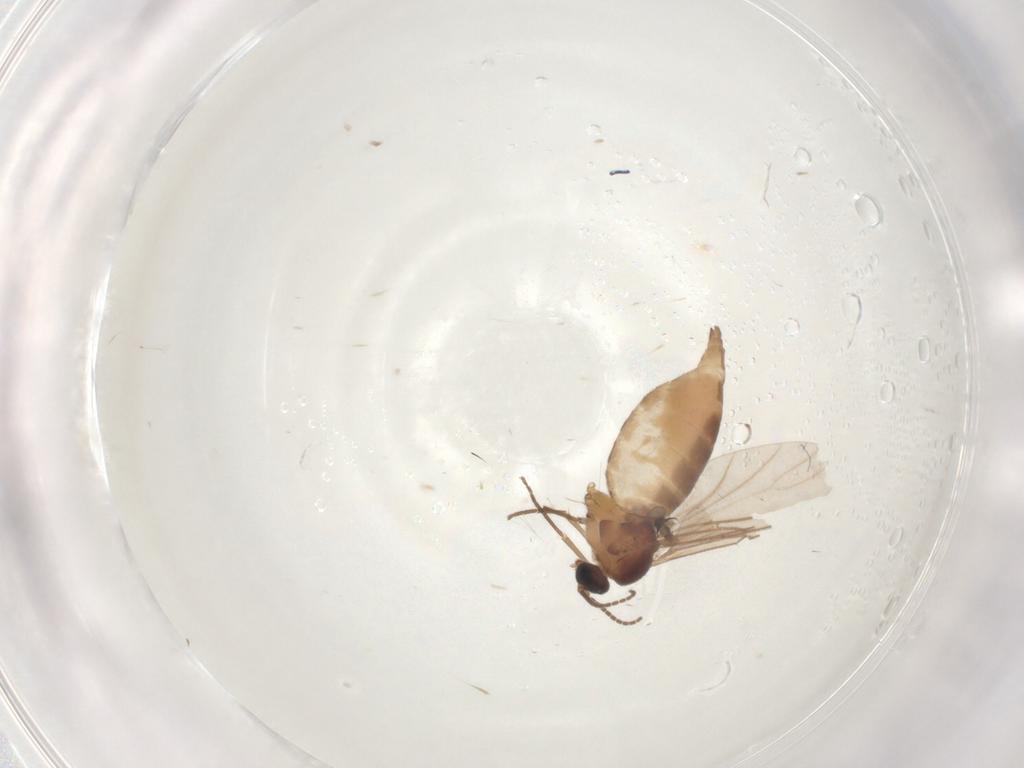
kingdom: Animalia
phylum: Arthropoda
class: Insecta
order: Diptera
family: Muscidae
